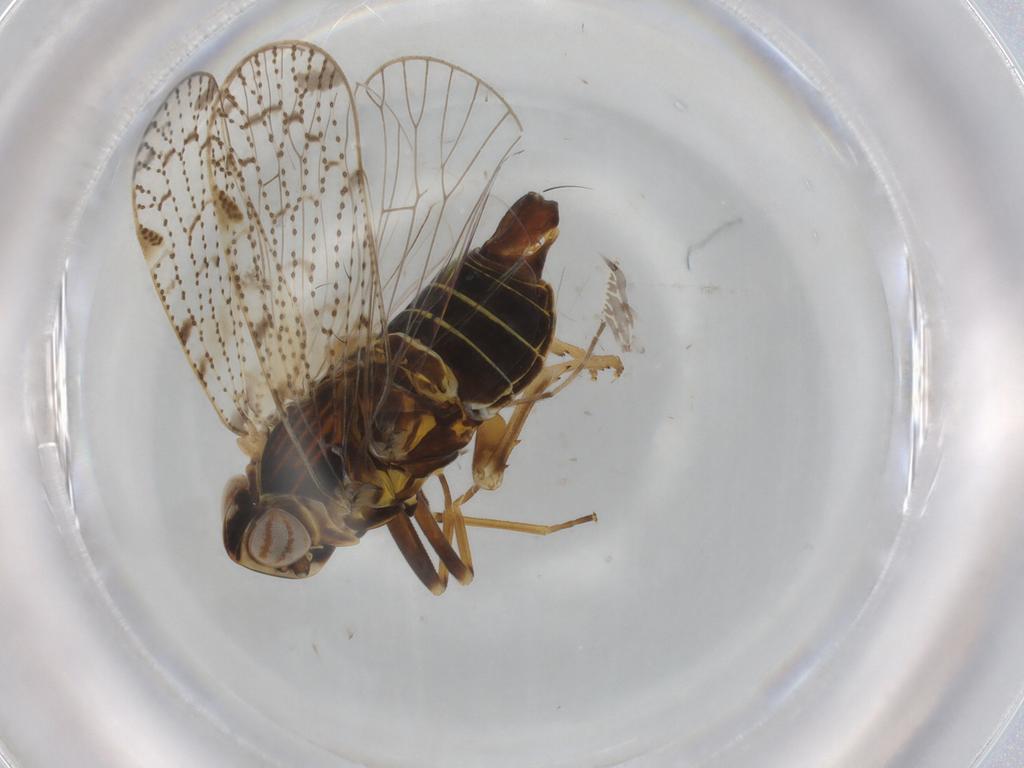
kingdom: Animalia
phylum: Arthropoda
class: Insecta
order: Hemiptera
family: Cixiidae
